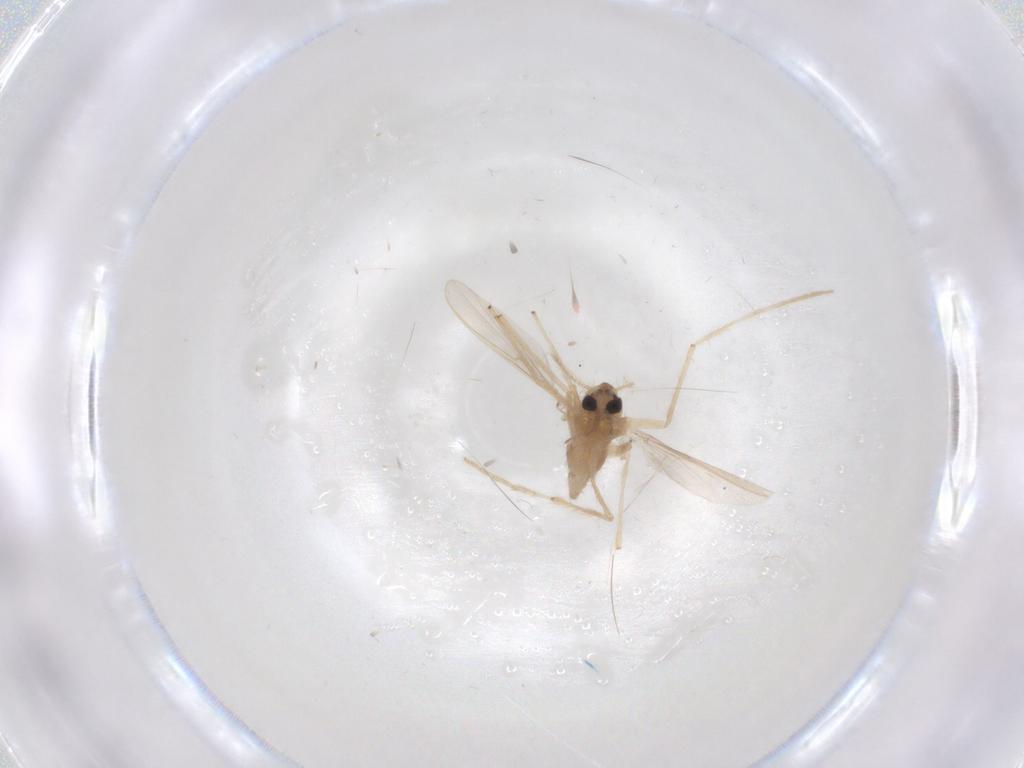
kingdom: Animalia
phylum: Arthropoda
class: Insecta
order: Diptera
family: Chironomidae
